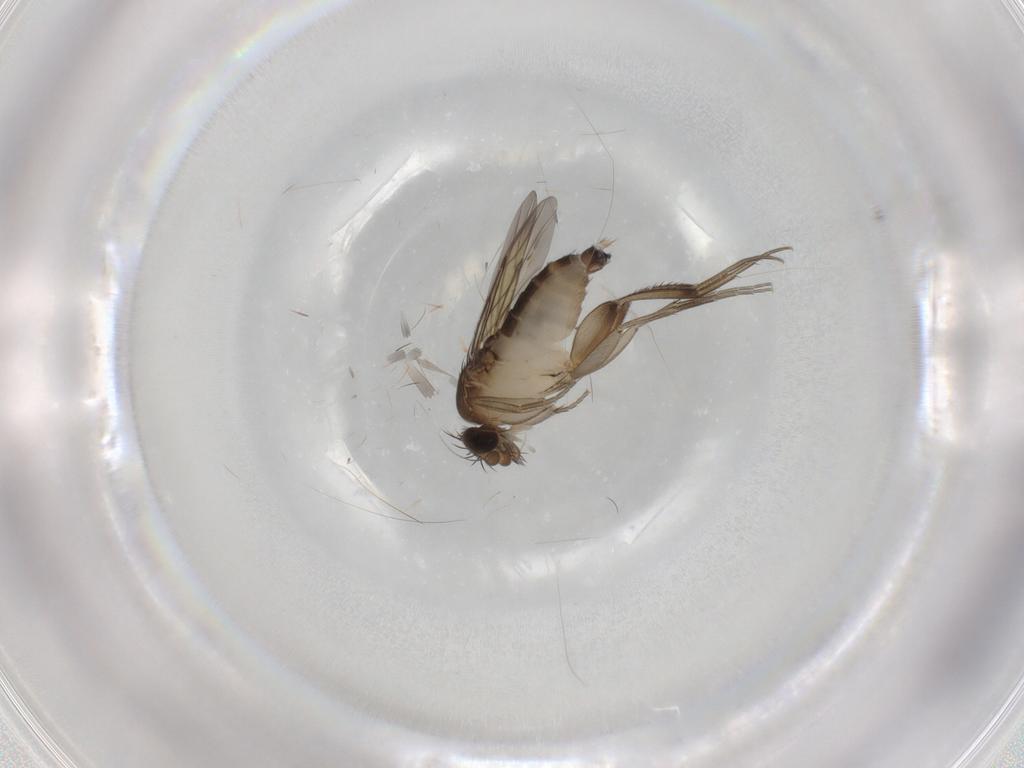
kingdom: Animalia
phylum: Arthropoda
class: Insecta
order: Diptera
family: Phoridae
